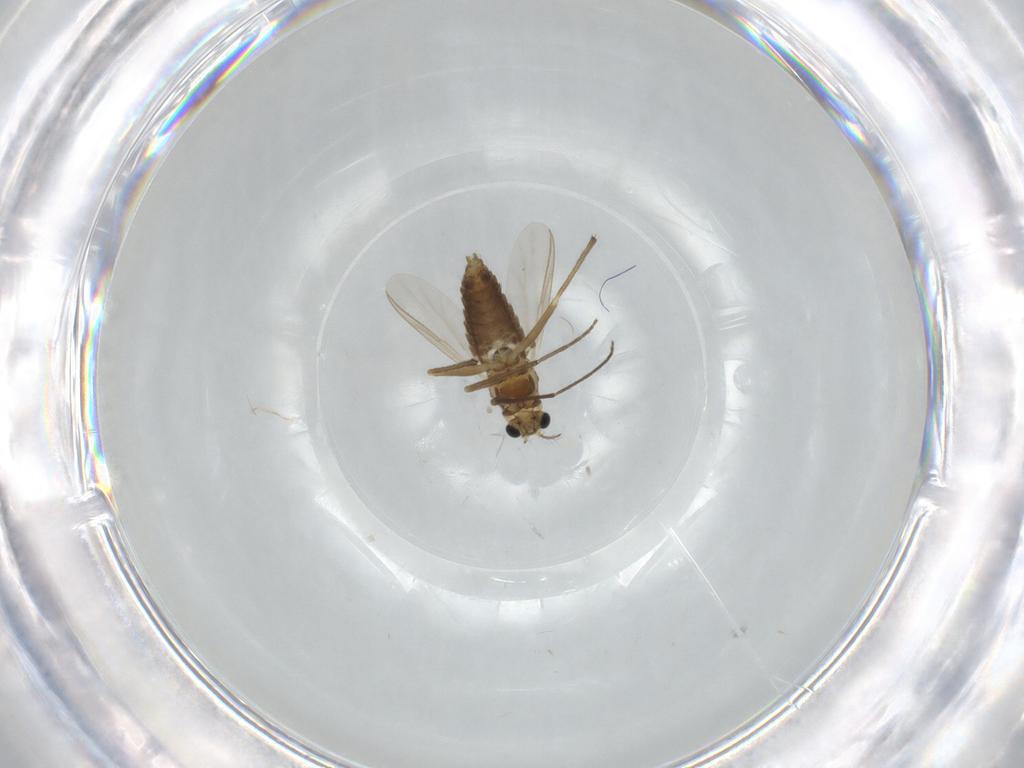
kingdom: Animalia
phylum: Arthropoda
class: Insecta
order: Diptera
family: Chironomidae
